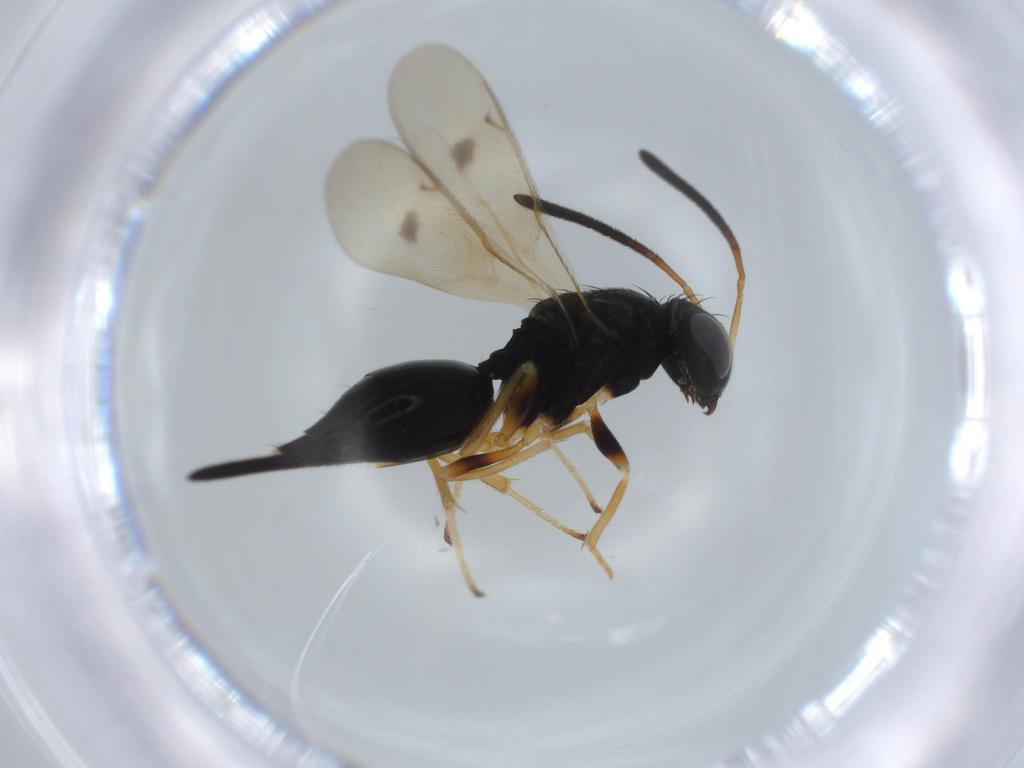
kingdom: Animalia
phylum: Arthropoda
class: Insecta
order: Hymenoptera
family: Pteromalidae
